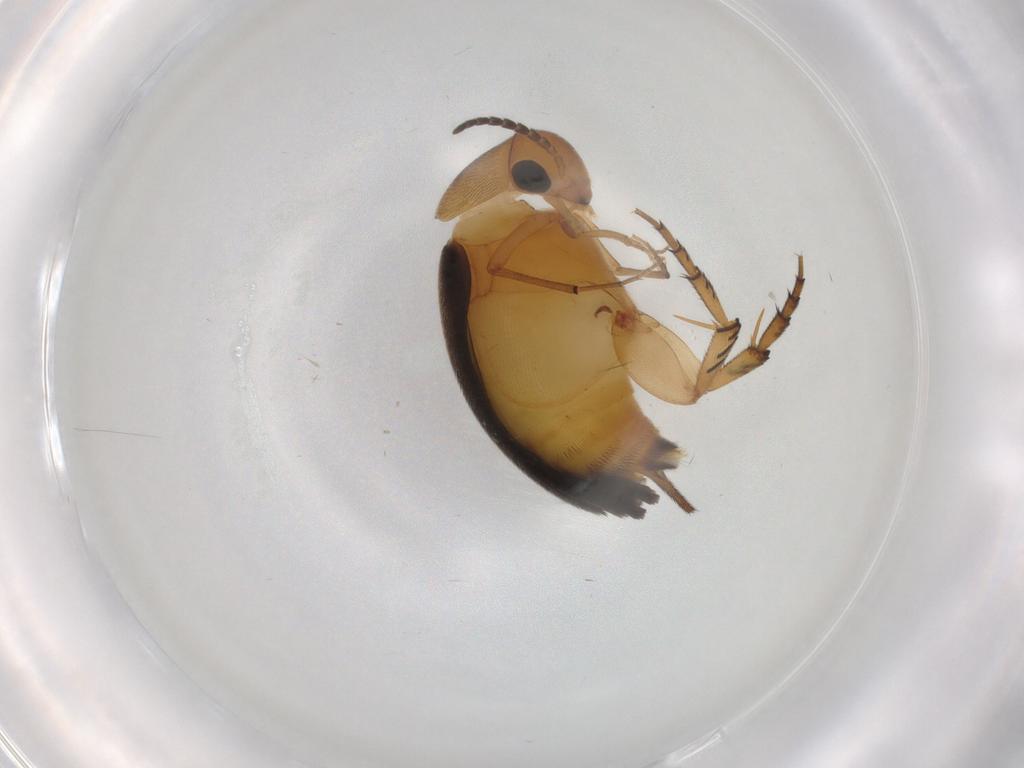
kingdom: Animalia
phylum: Arthropoda
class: Insecta
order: Coleoptera
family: Mordellidae
